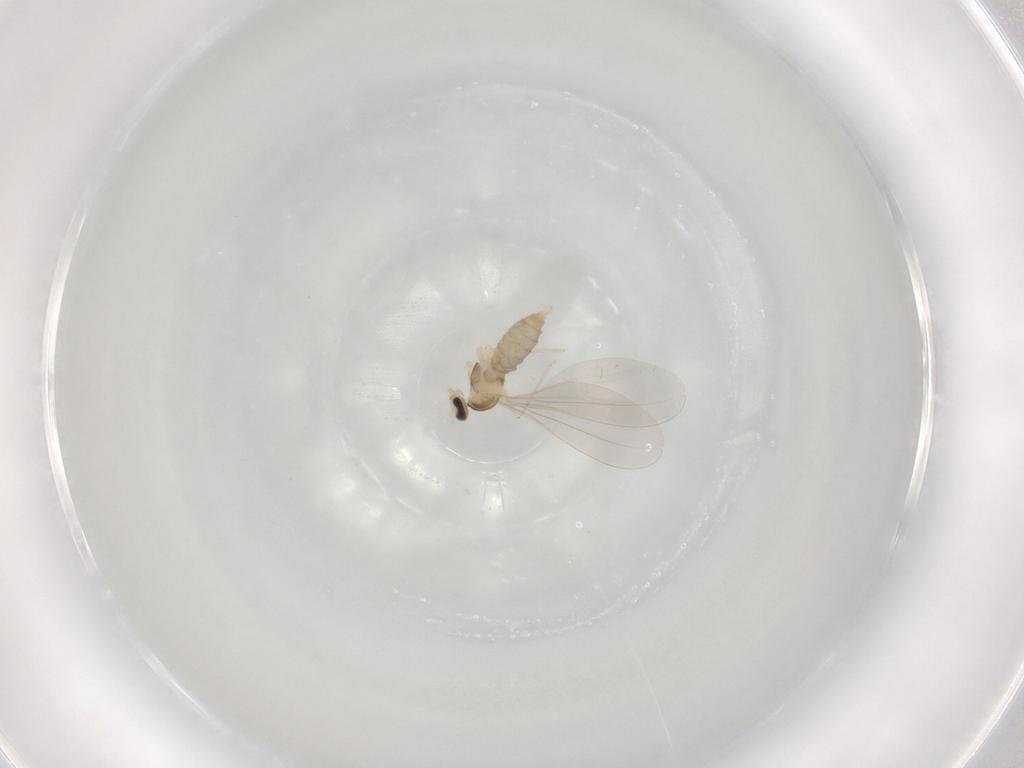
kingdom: Animalia
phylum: Arthropoda
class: Insecta
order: Diptera
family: Cecidomyiidae
